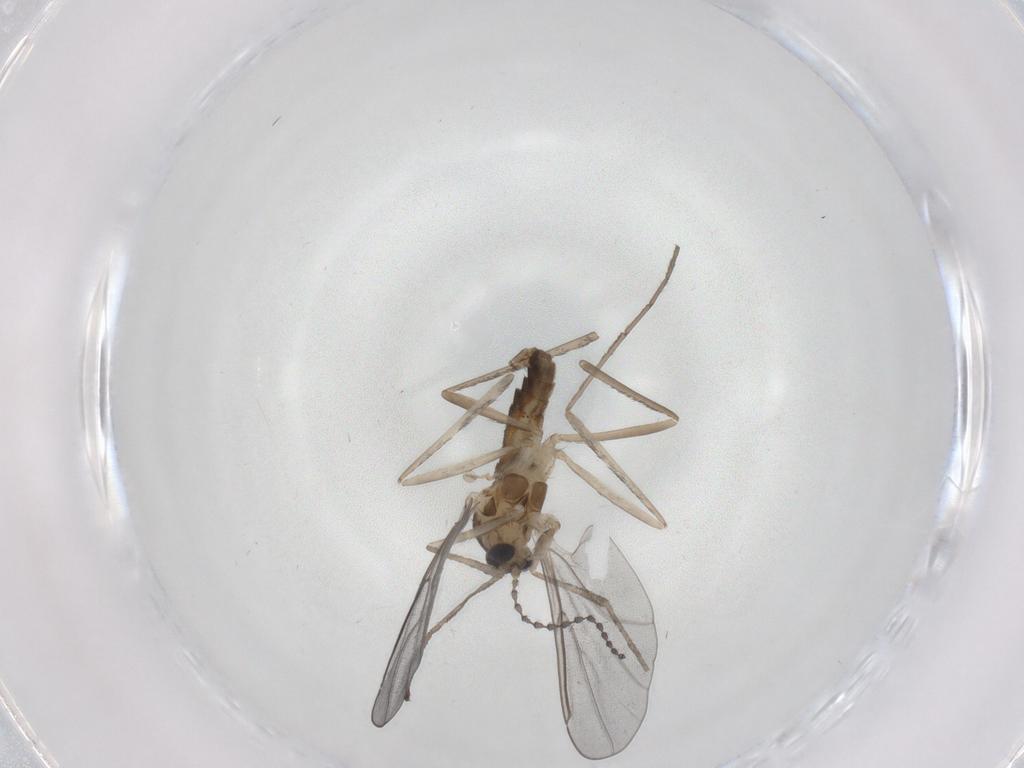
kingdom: Animalia
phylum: Arthropoda
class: Insecta
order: Diptera
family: Cecidomyiidae
